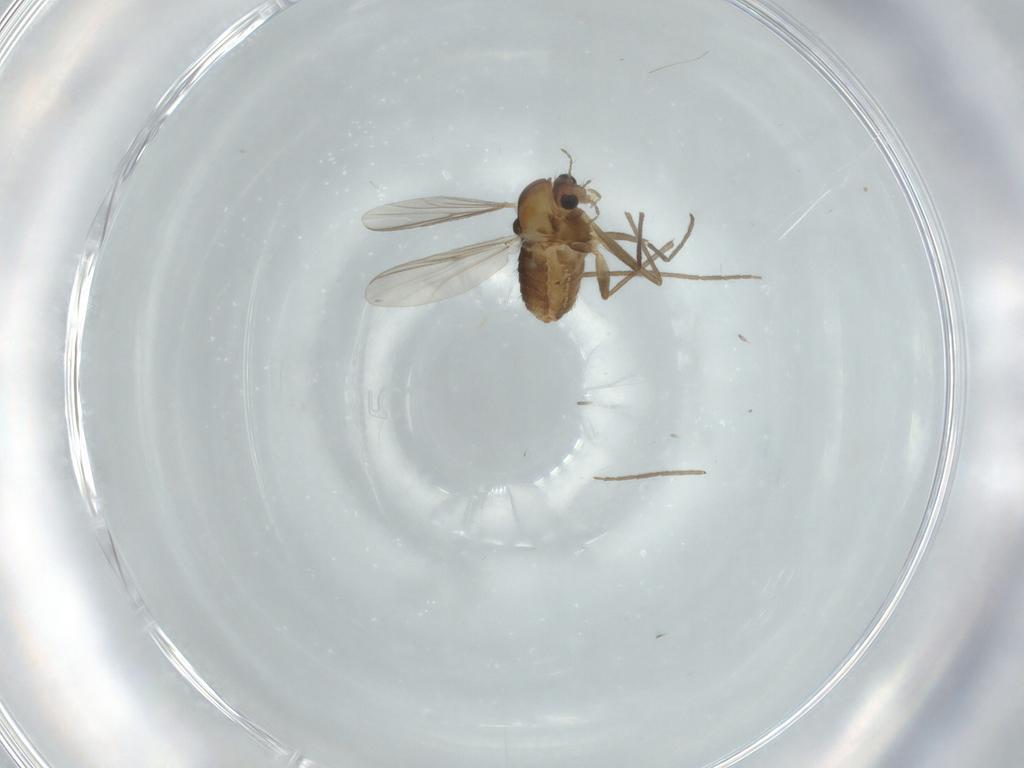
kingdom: Animalia
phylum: Arthropoda
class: Insecta
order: Diptera
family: Chironomidae
